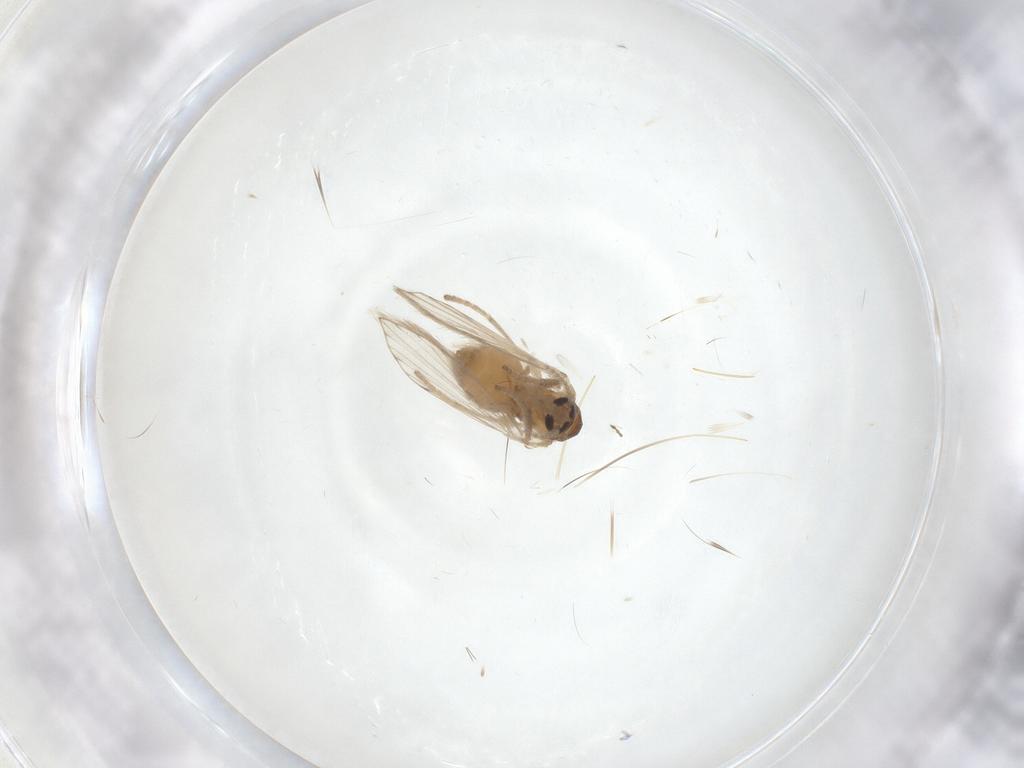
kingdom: Animalia
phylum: Arthropoda
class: Insecta
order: Diptera
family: Psychodidae
